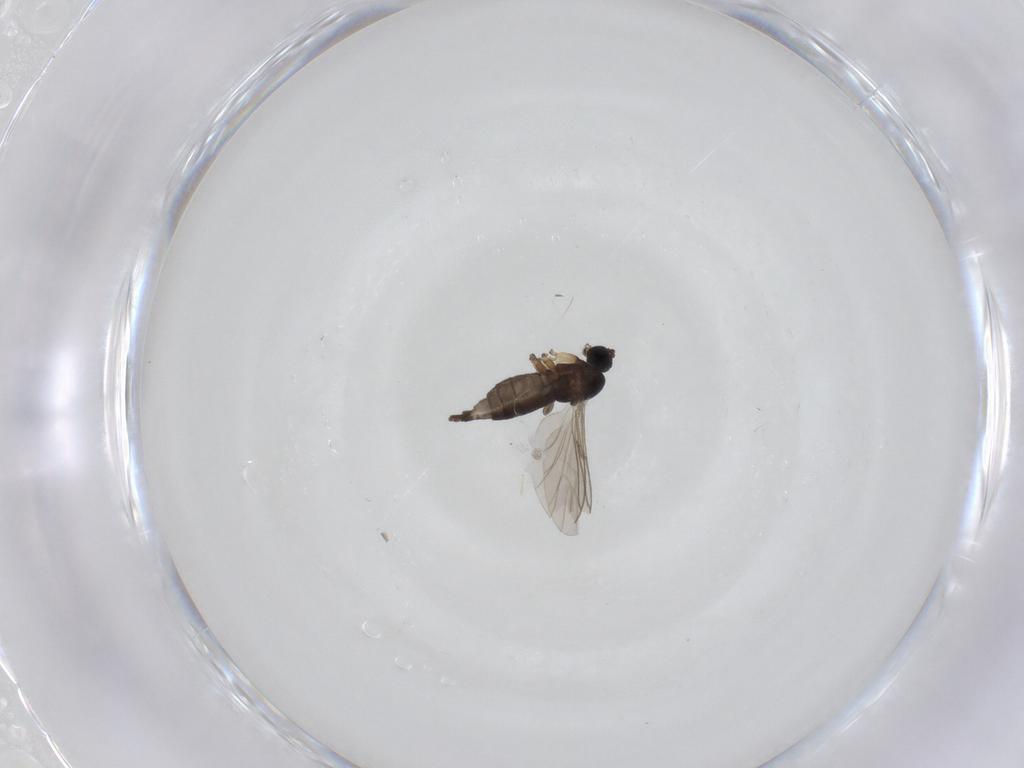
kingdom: Animalia
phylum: Arthropoda
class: Insecta
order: Diptera
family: Sciaridae
